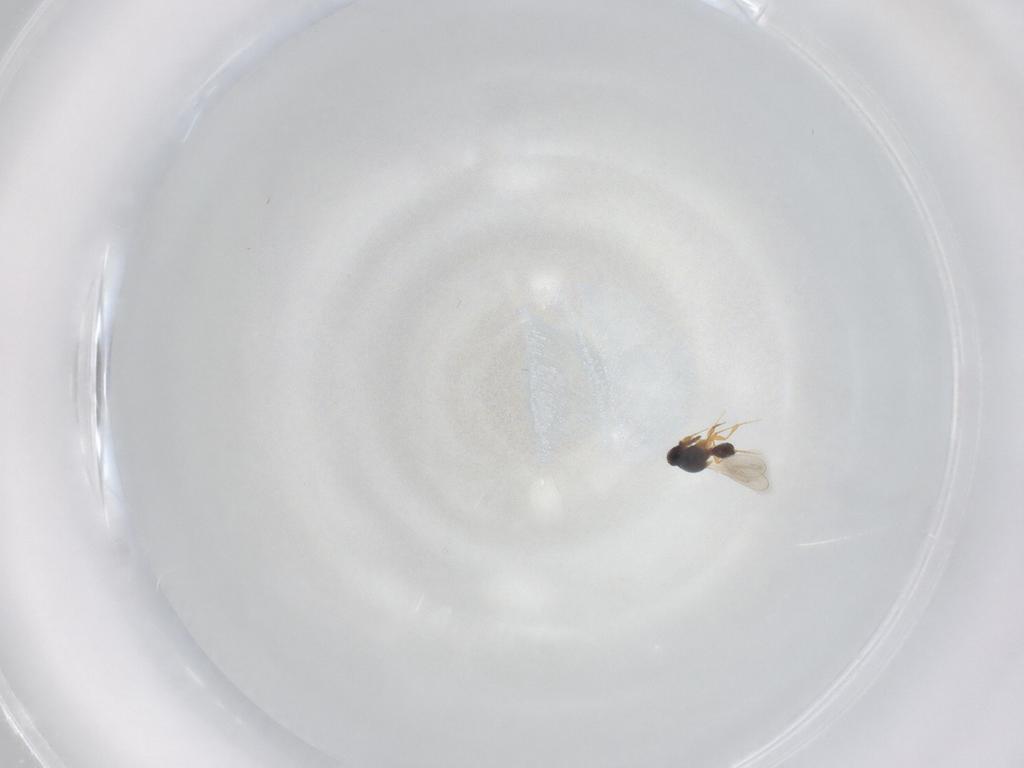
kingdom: Animalia
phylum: Arthropoda
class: Insecta
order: Hymenoptera
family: Platygastridae
